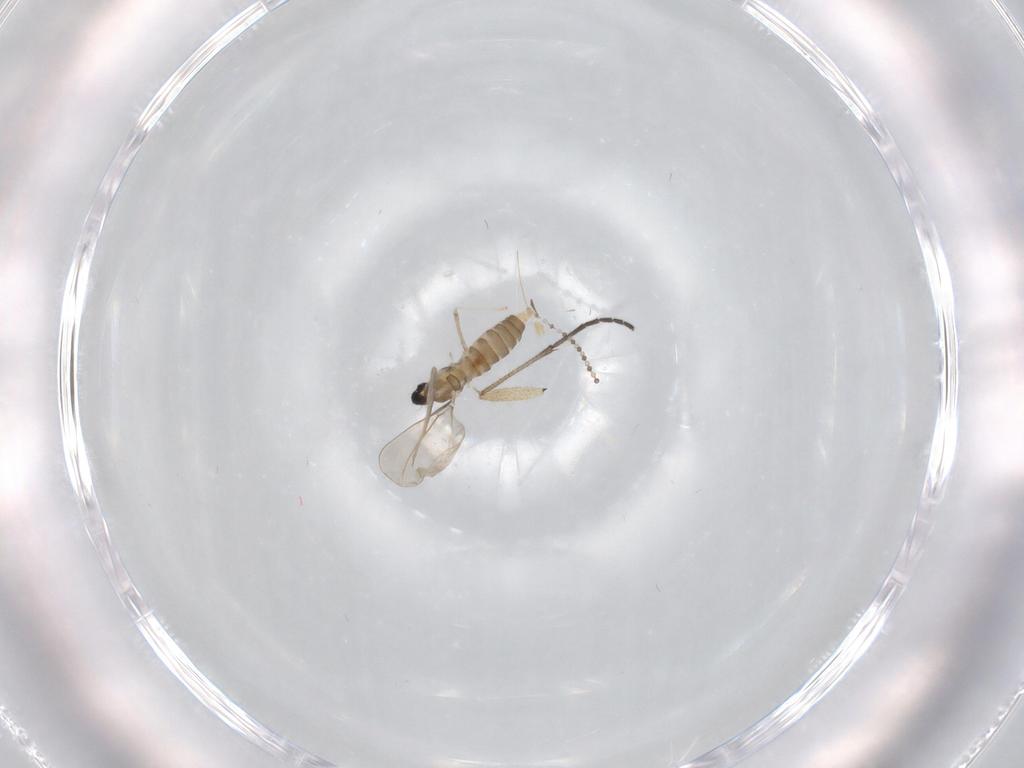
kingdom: Animalia
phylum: Arthropoda
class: Insecta
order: Diptera
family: Cecidomyiidae
